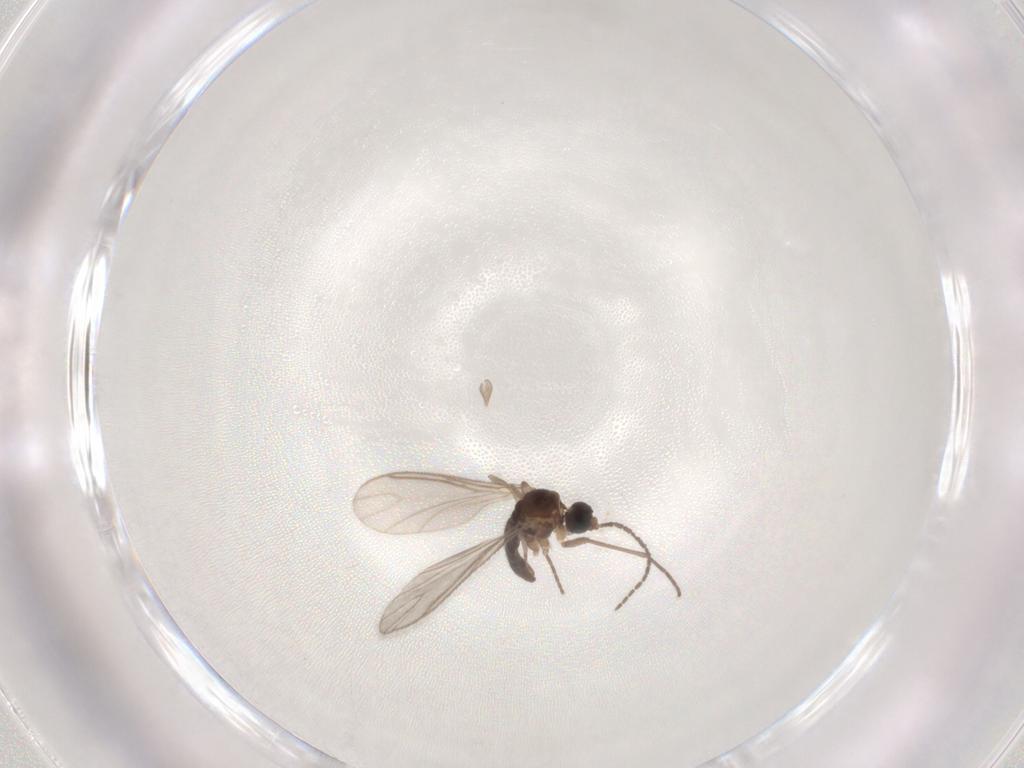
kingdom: Animalia
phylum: Arthropoda
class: Insecta
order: Diptera
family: Sciaridae
